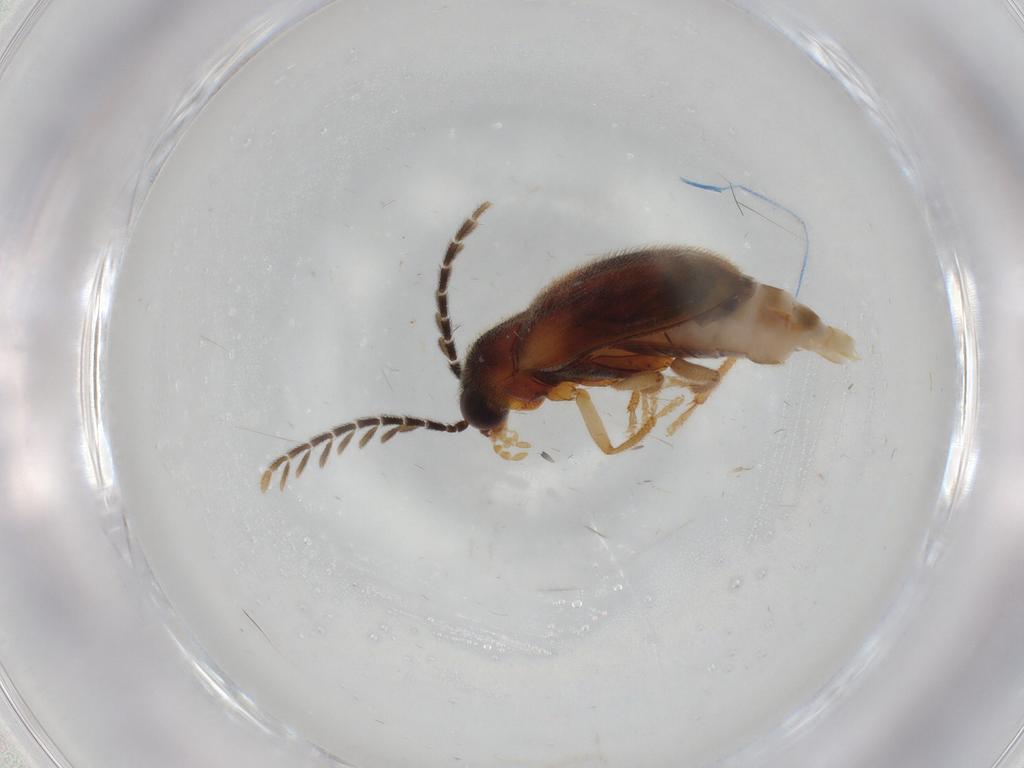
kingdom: Animalia
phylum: Arthropoda
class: Insecta
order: Coleoptera
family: Ptilodactylidae
